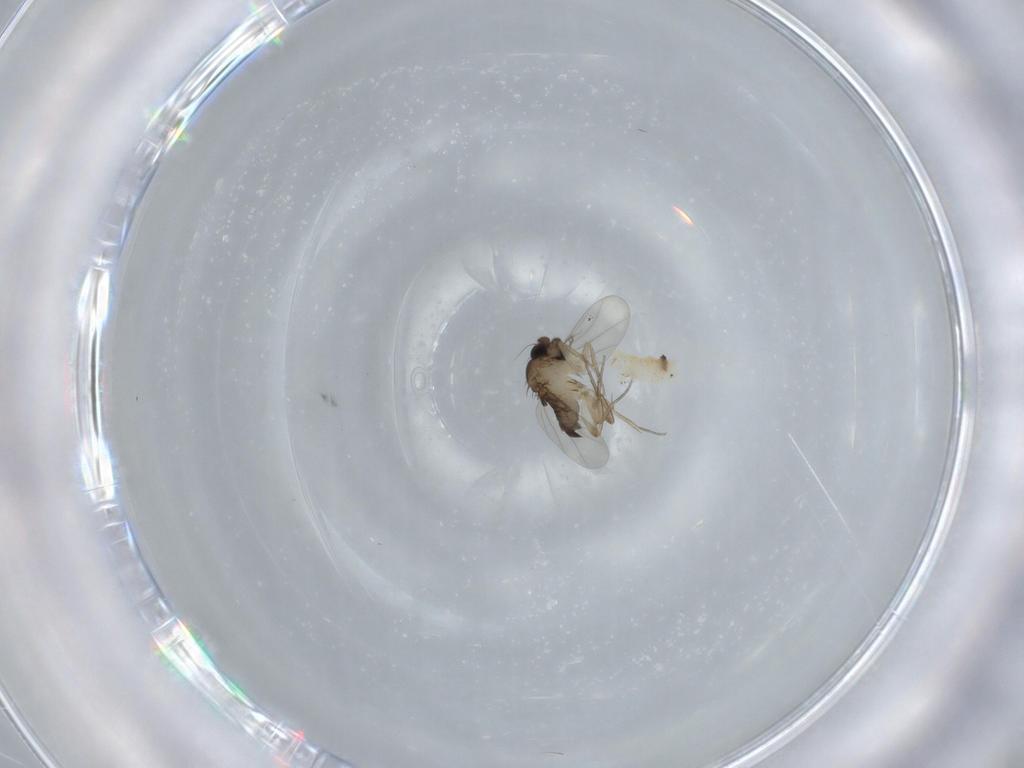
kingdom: Animalia
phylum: Arthropoda
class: Insecta
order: Diptera
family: Phoridae
